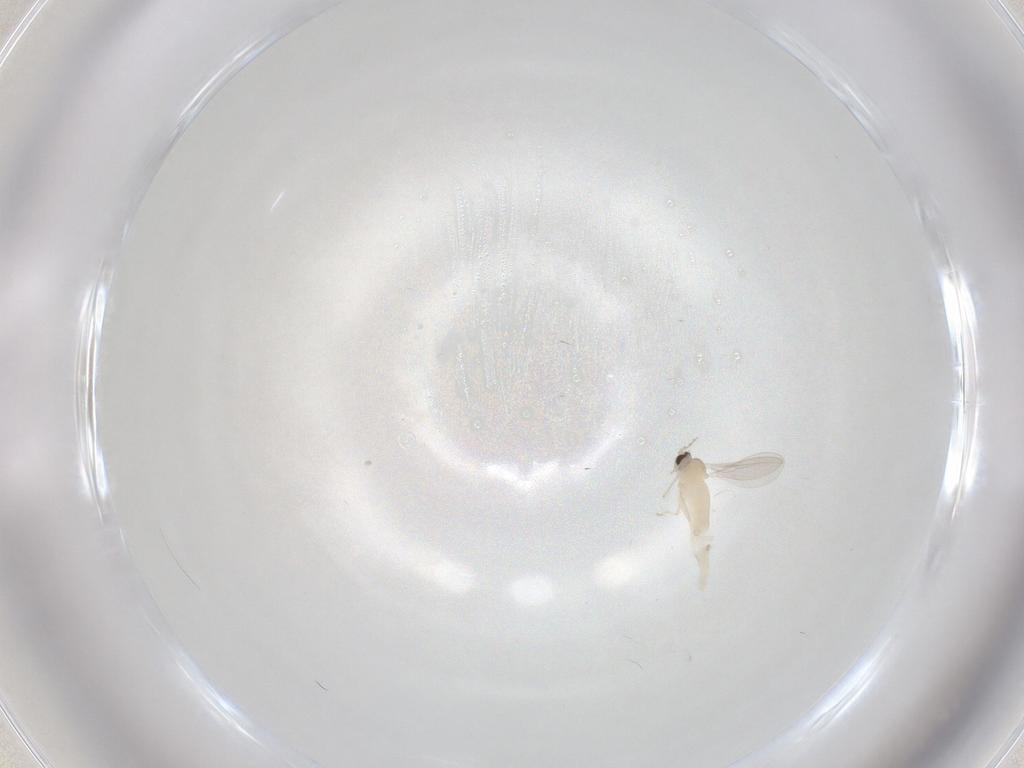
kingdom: Animalia
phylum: Arthropoda
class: Insecta
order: Diptera
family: Cecidomyiidae
